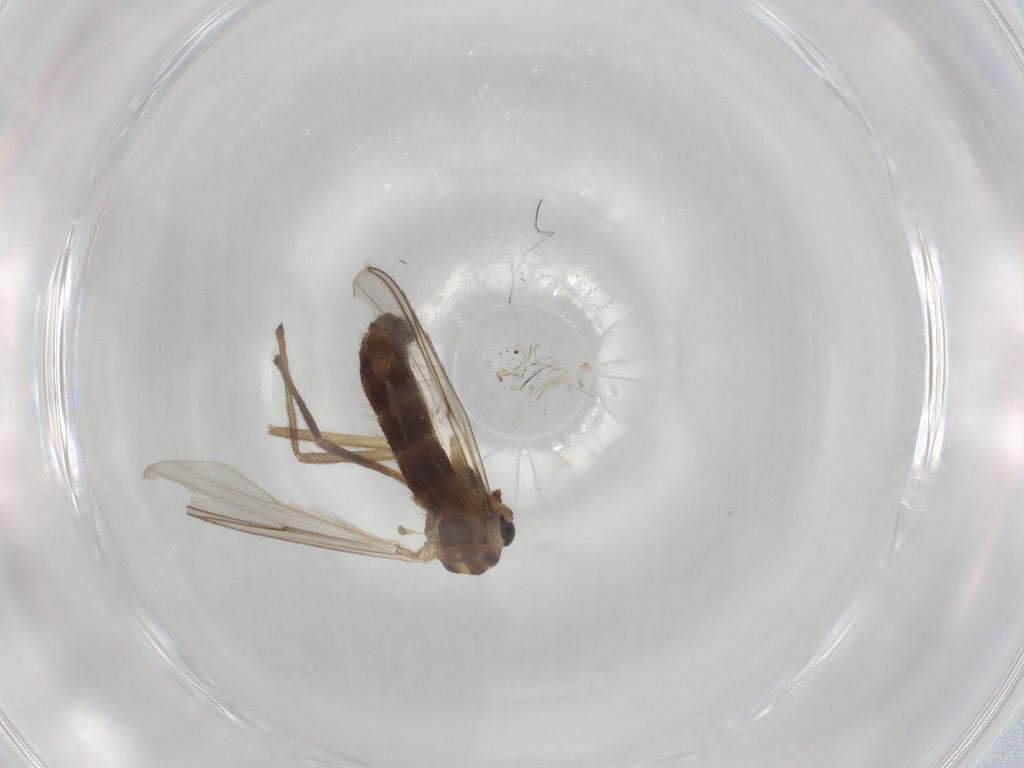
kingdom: Animalia
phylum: Arthropoda
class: Insecta
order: Diptera
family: Chironomidae
